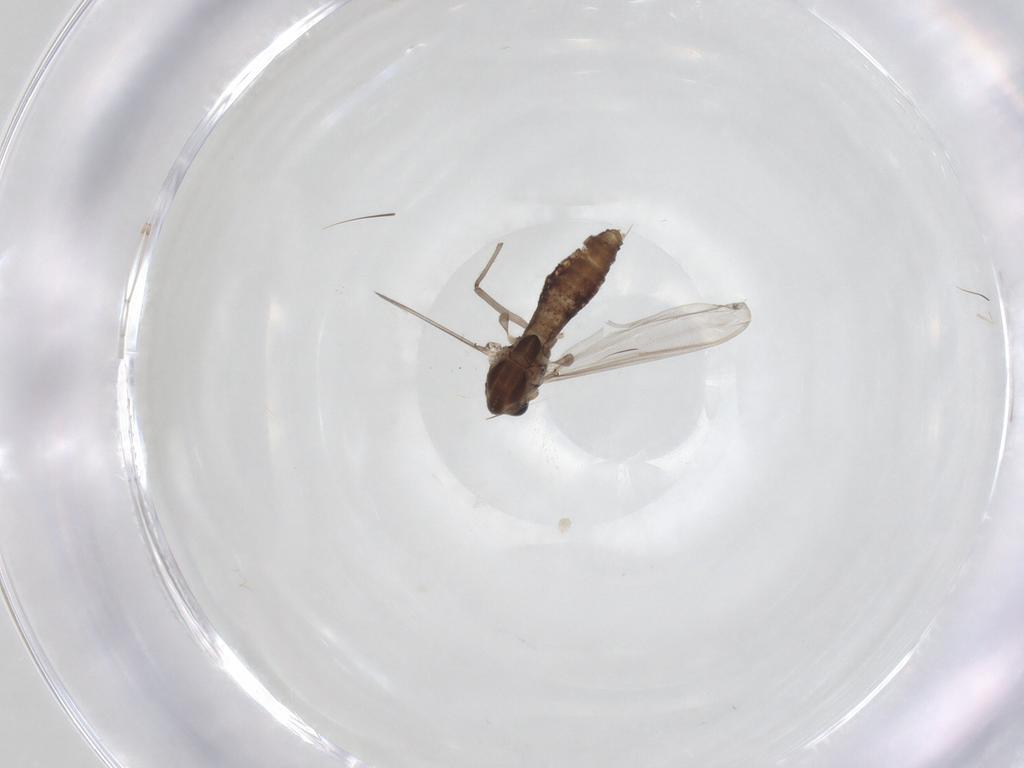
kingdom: Animalia
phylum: Arthropoda
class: Insecta
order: Diptera
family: Chironomidae
